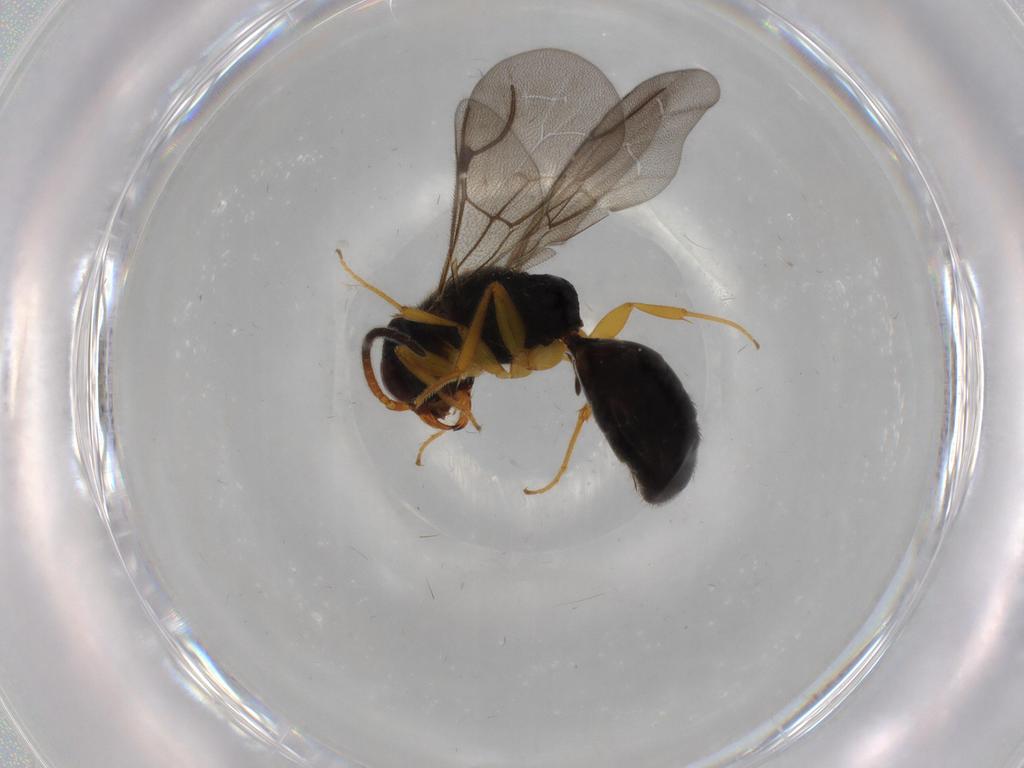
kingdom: Animalia
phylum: Arthropoda
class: Insecta
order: Hymenoptera
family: Bethylidae
